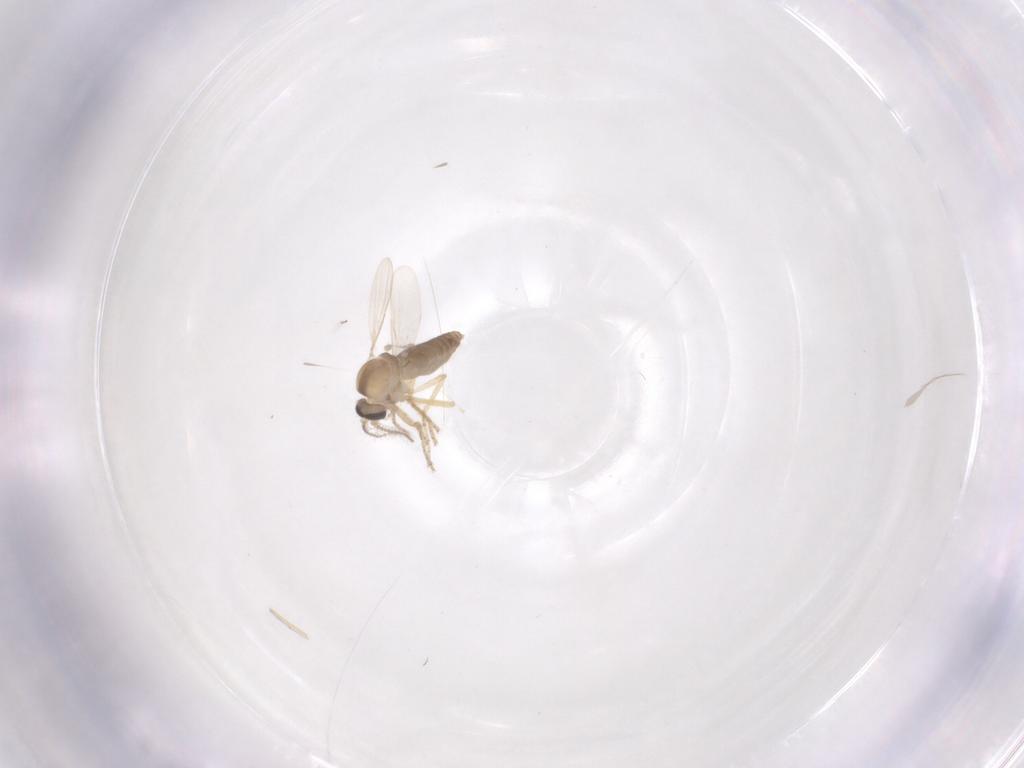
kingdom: Animalia
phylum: Arthropoda
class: Insecta
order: Diptera
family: Ceratopogonidae
